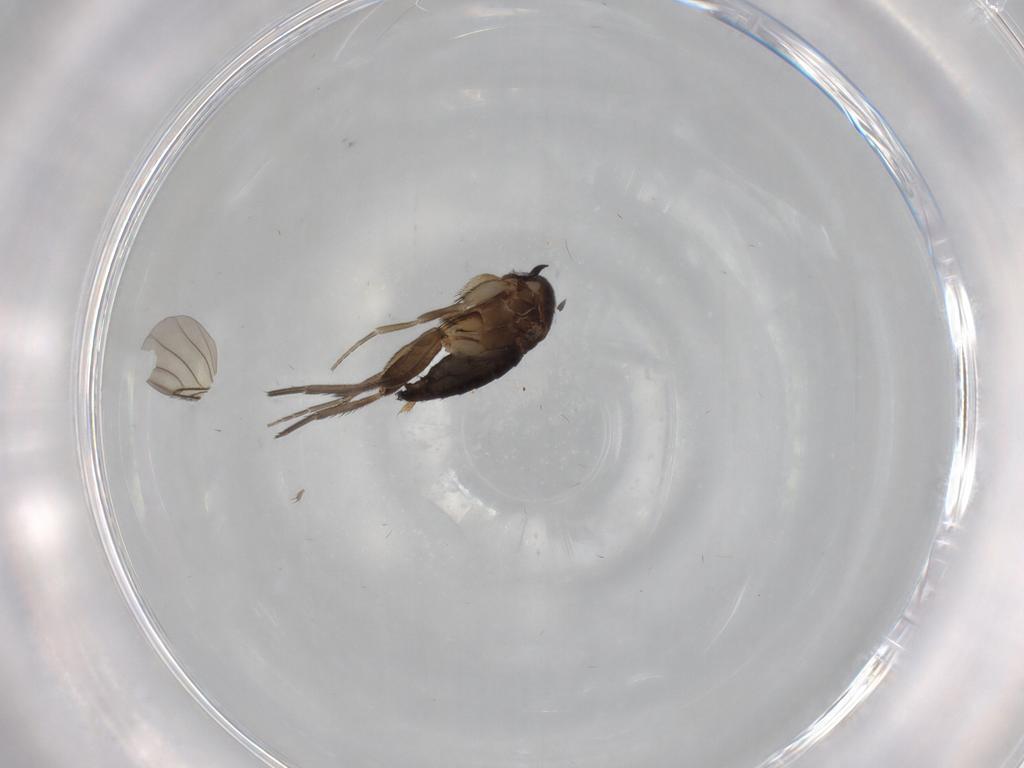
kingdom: Animalia
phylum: Arthropoda
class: Insecta
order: Diptera
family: Phoridae
